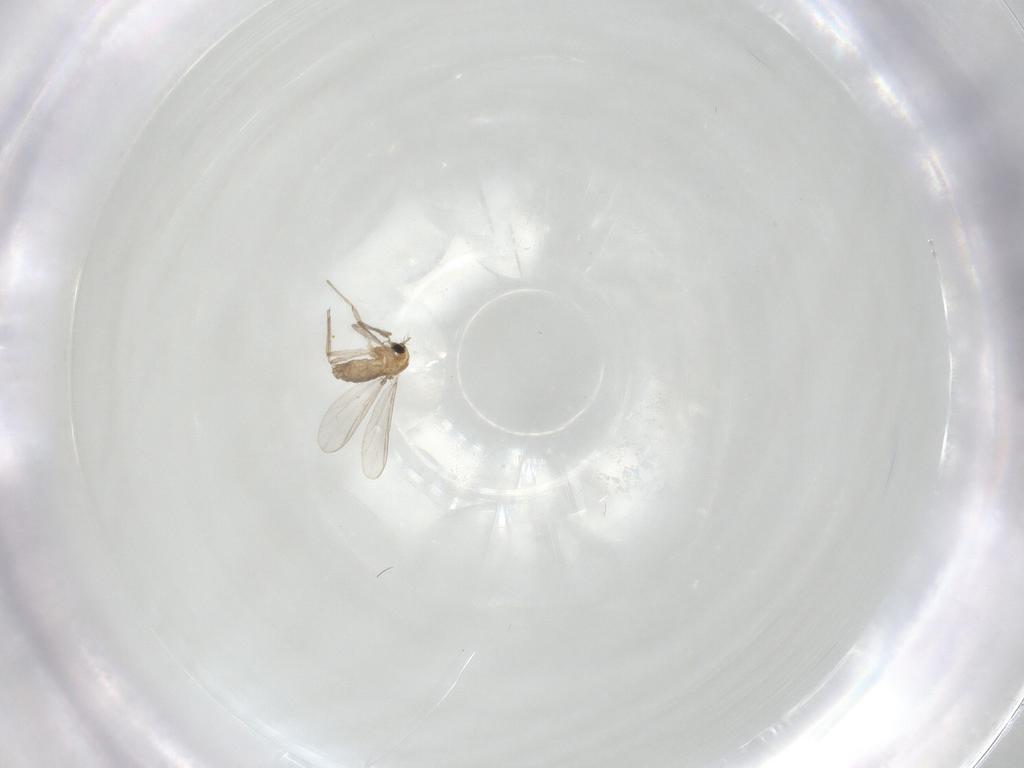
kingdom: Animalia
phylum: Arthropoda
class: Insecta
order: Diptera
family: Chironomidae
